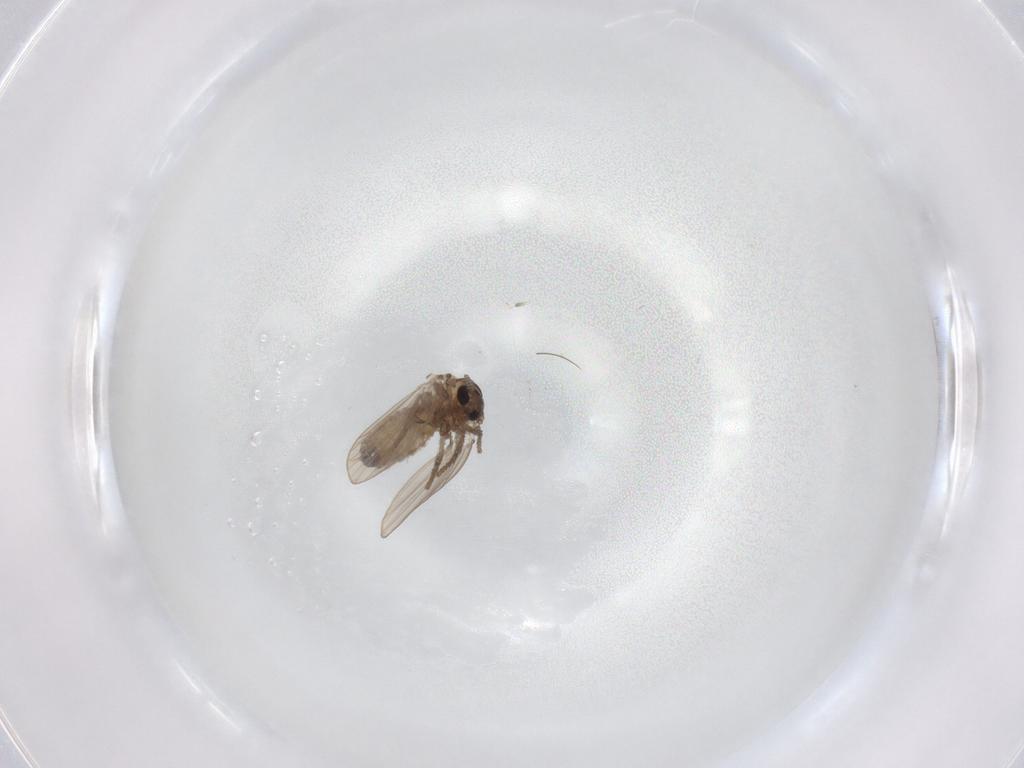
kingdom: Animalia
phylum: Arthropoda
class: Insecta
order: Diptera
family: Psychodidae
